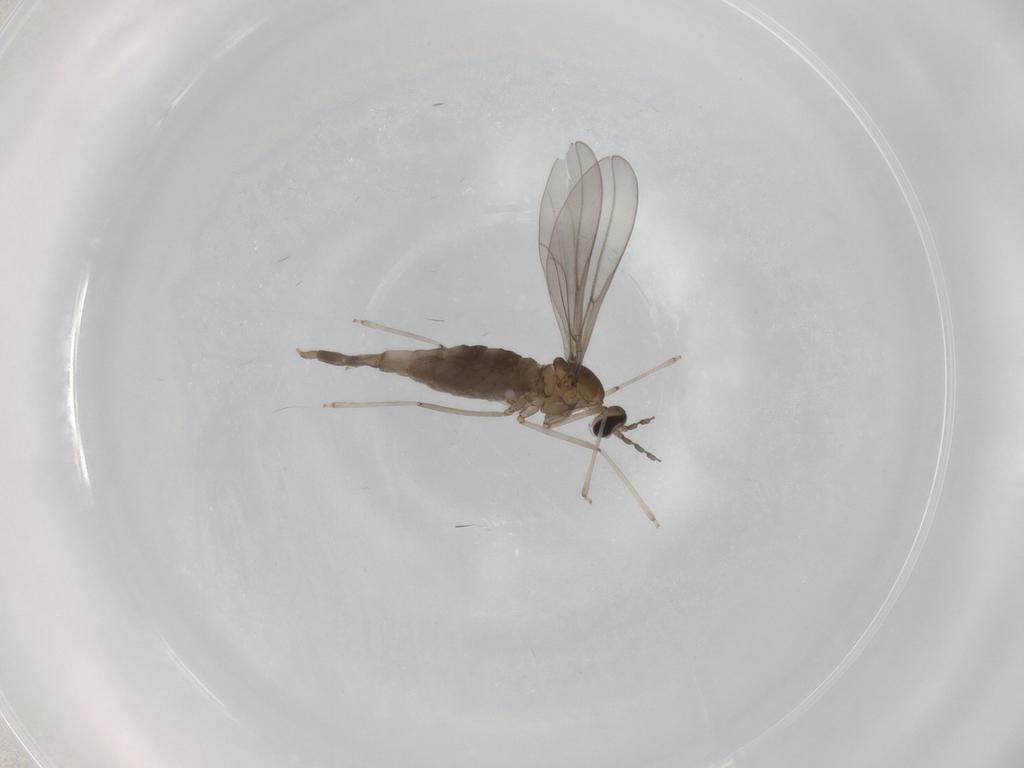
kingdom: Animalia
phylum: Arthropoda
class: Insecta
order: Diptera
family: Cecidomyiidae
